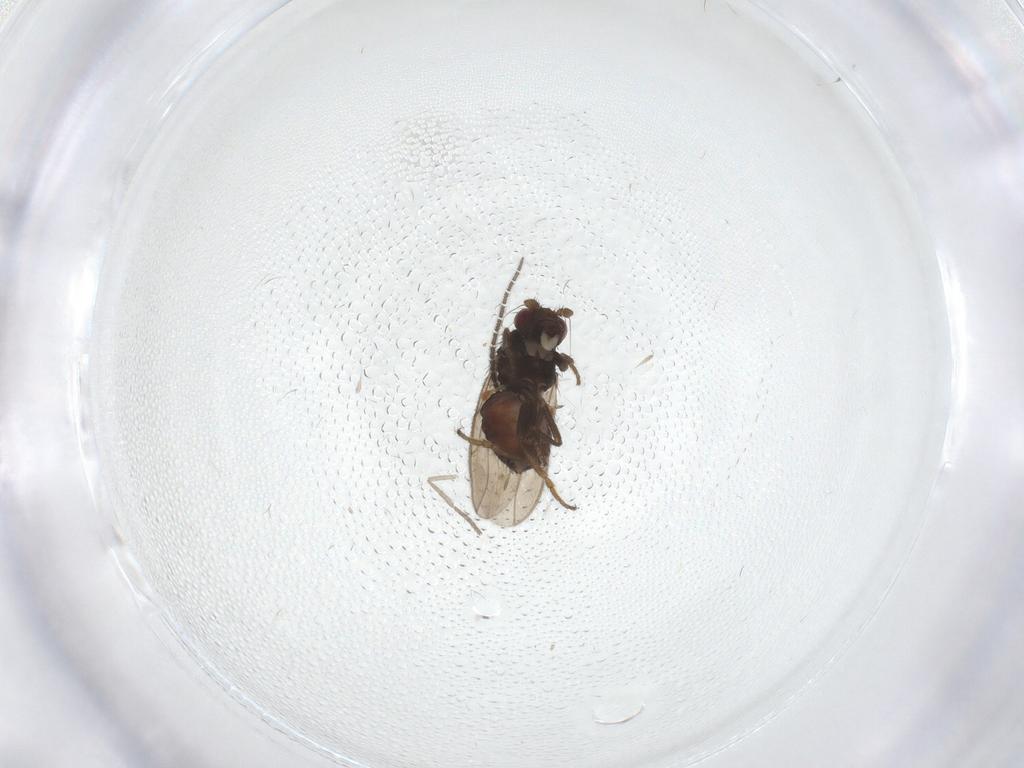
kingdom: Animalia
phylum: Arthropoda
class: Insecta
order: Diptera
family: Sphaeroceridae
